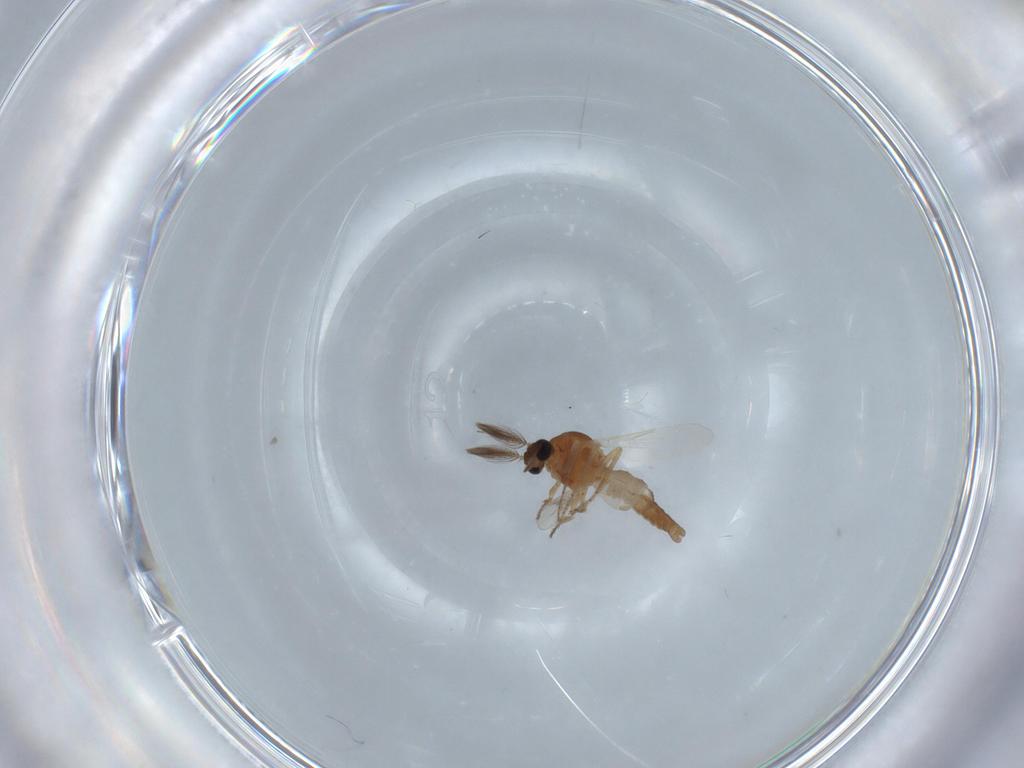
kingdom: Animalia
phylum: Arthropoda
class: Insecta
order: Diptera
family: Ceratopogonidae
